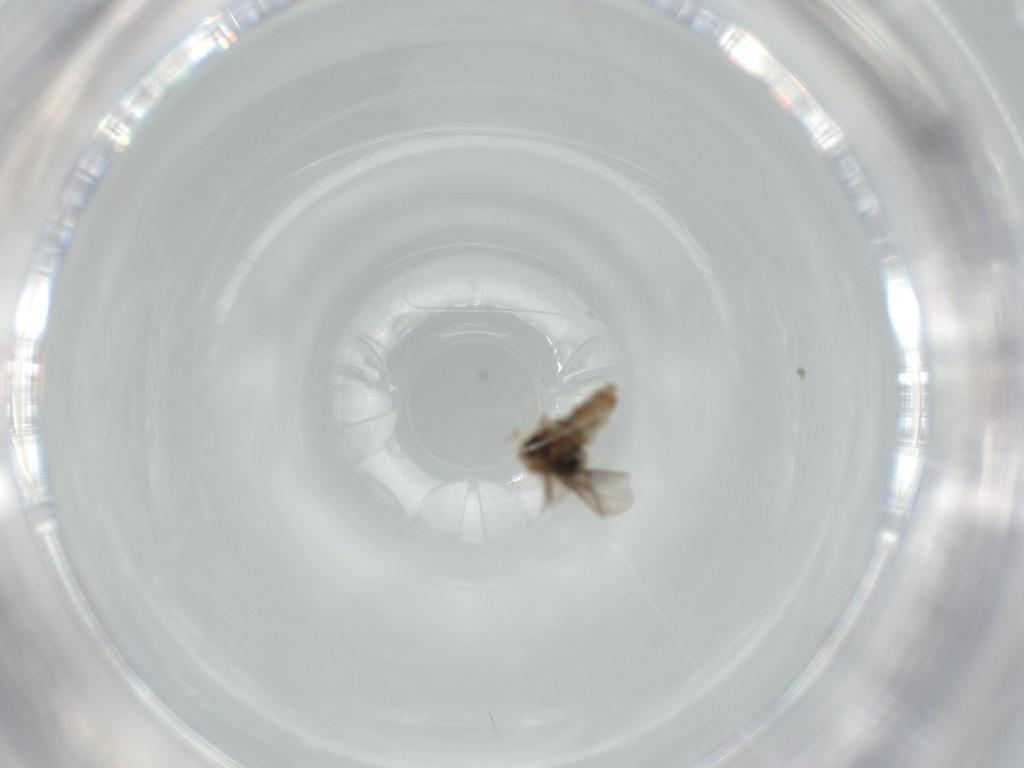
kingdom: Animalia
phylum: Arthropoda
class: Insecta
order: Diptera
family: Cecidomyiidae
